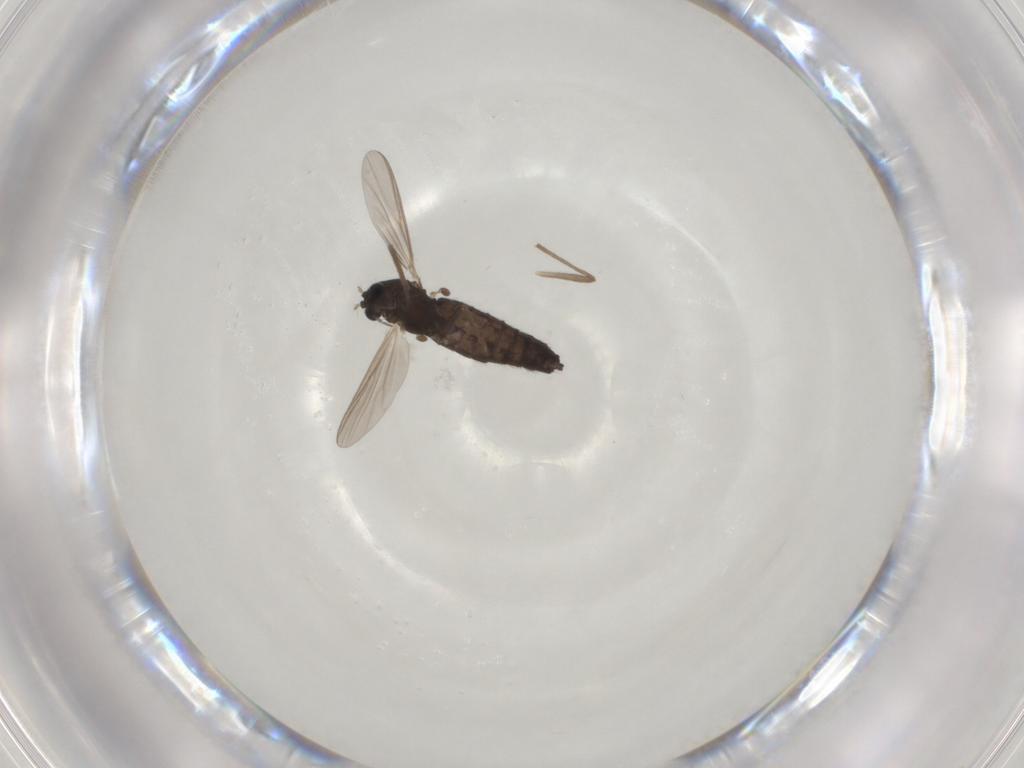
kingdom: Animalia
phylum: Arthropoda
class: Insecta
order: Diptera
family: Chironomidae
